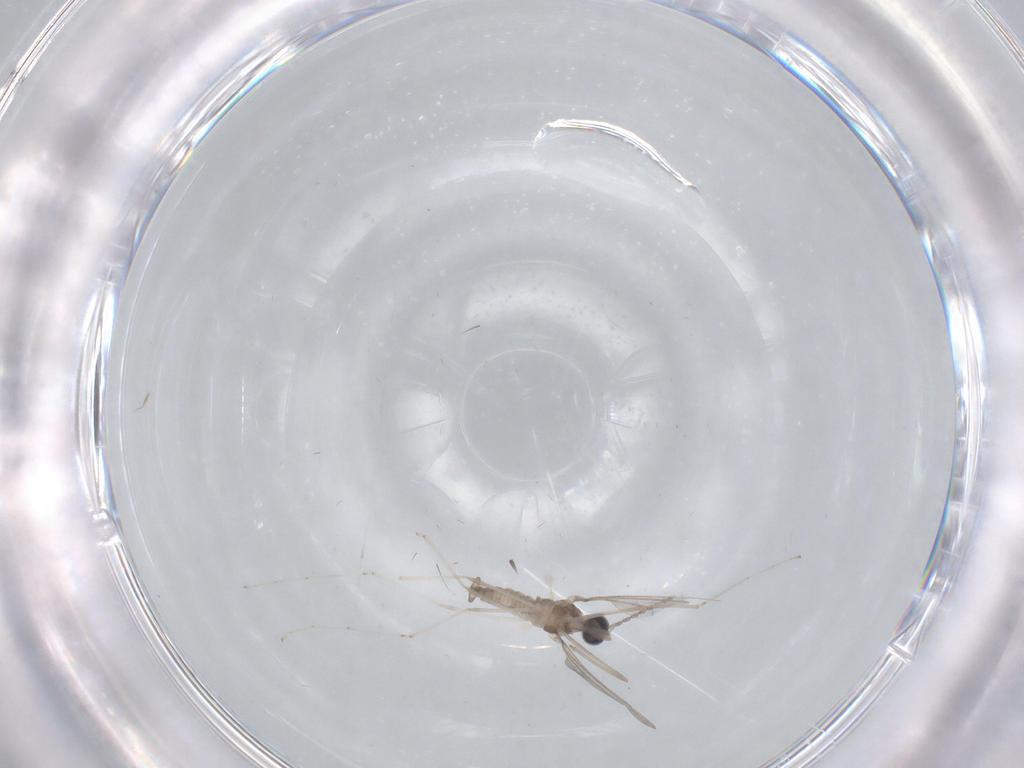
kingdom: Animalia
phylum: Arthropoda
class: Insecta
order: Diptera
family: Cecidomyiidae
